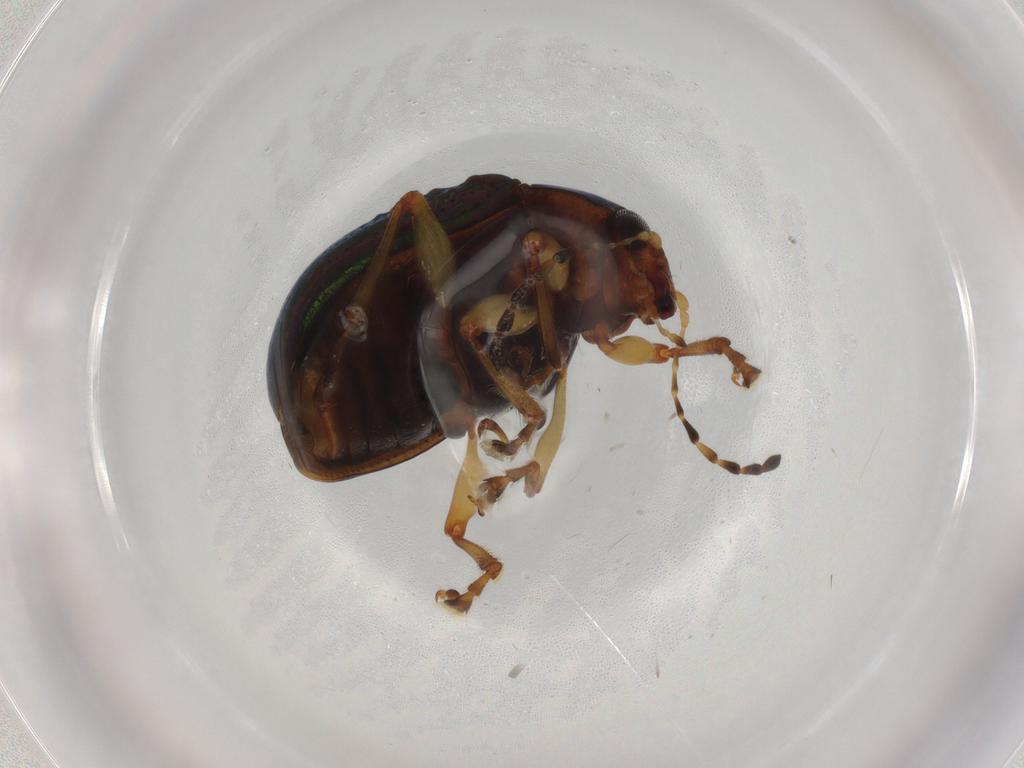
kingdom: Animalia
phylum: Arthropoda
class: Insecta
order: Coleoptera
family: Chrysomelidae
